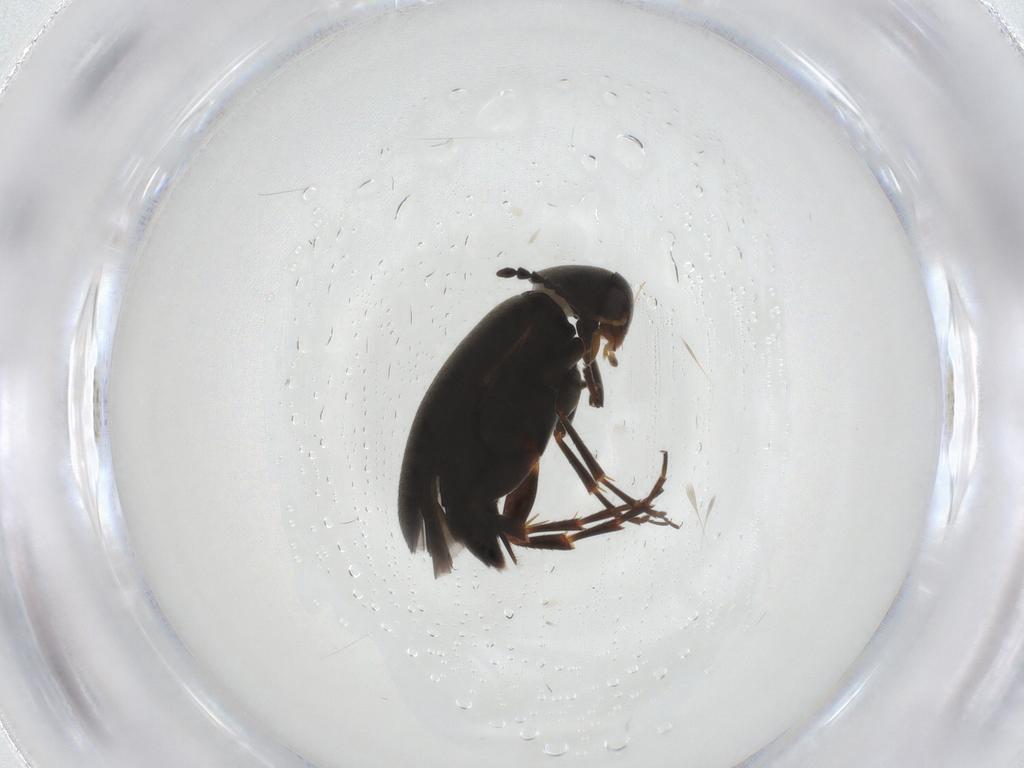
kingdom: Animalia
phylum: Arthropoda
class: Insecta
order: Coleoptera
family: Scraptiidae
